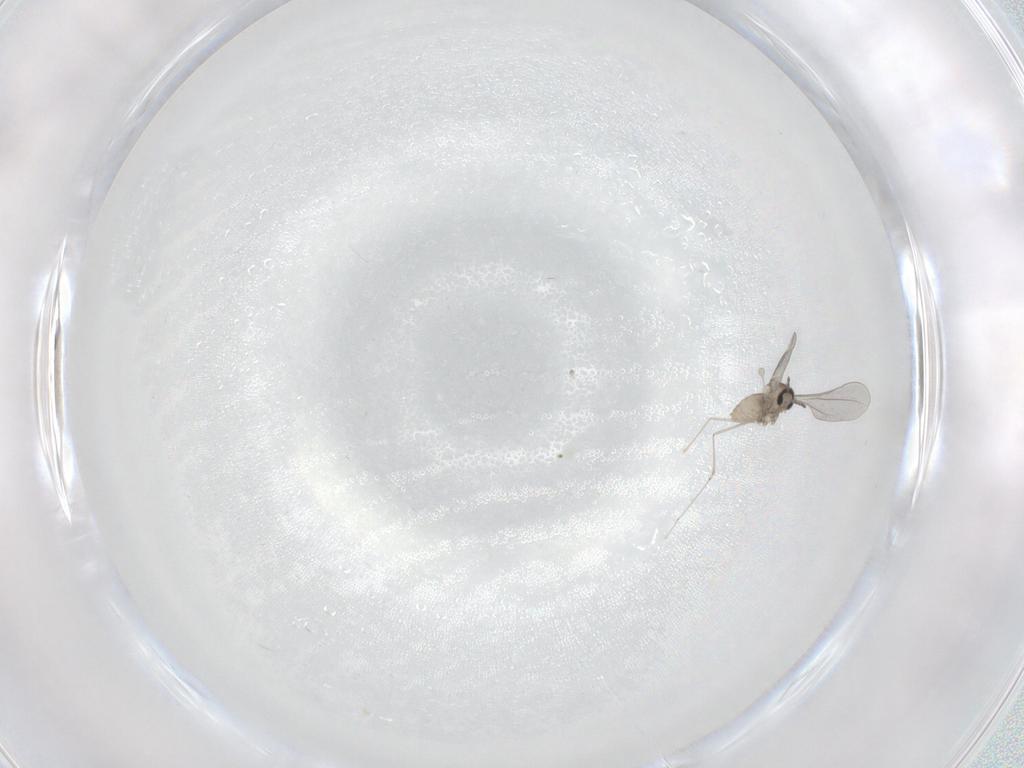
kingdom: Animalia
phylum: Arthropoda
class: Insecta
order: Diptera
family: Cecidomyiidae
